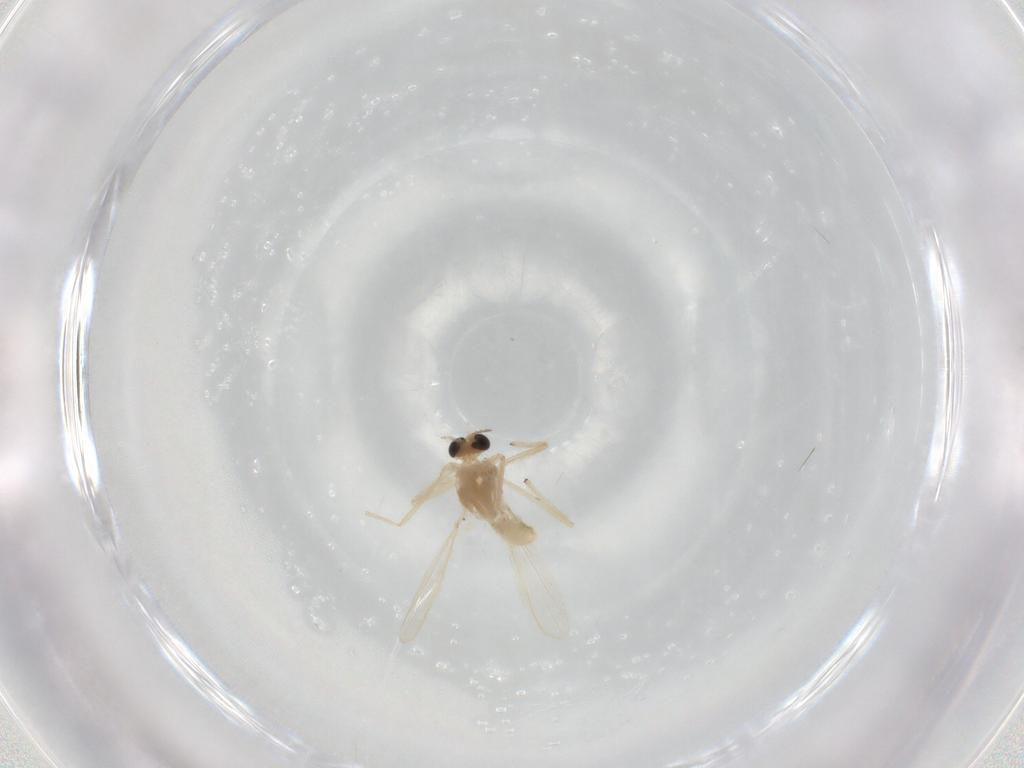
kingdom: Animalia
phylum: Arthropoda
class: Insecta
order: Diptera
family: Chironomidae
